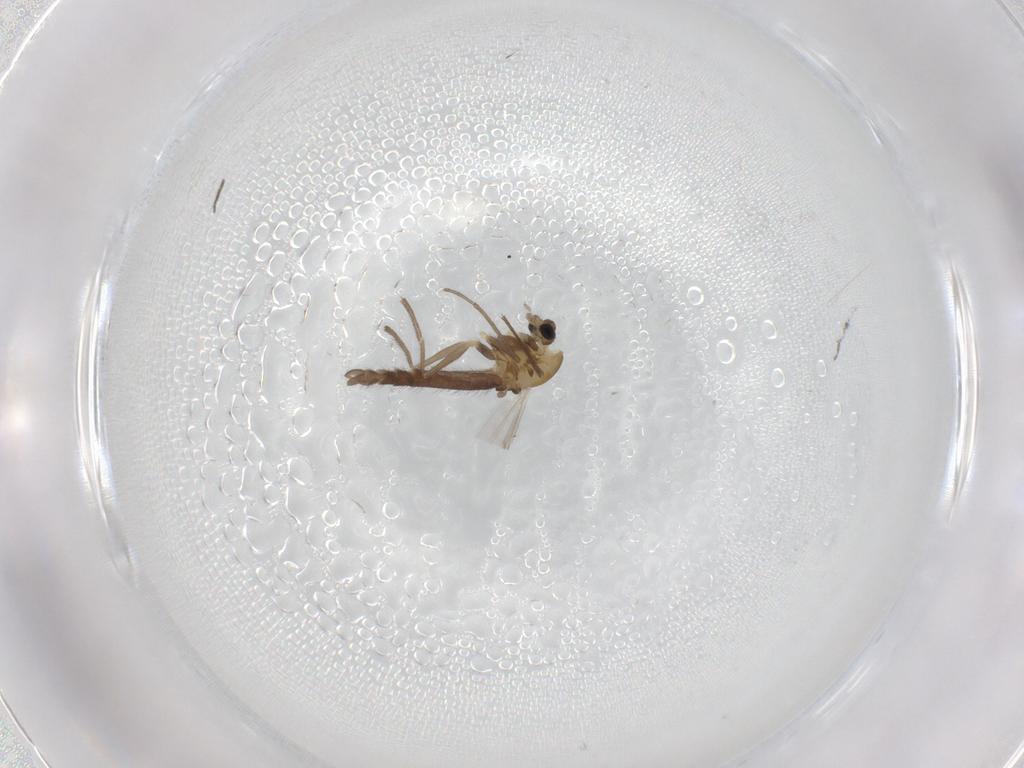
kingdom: Animalia
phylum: Arthropoda
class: Insecta
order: Diptera
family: Chironomidae
